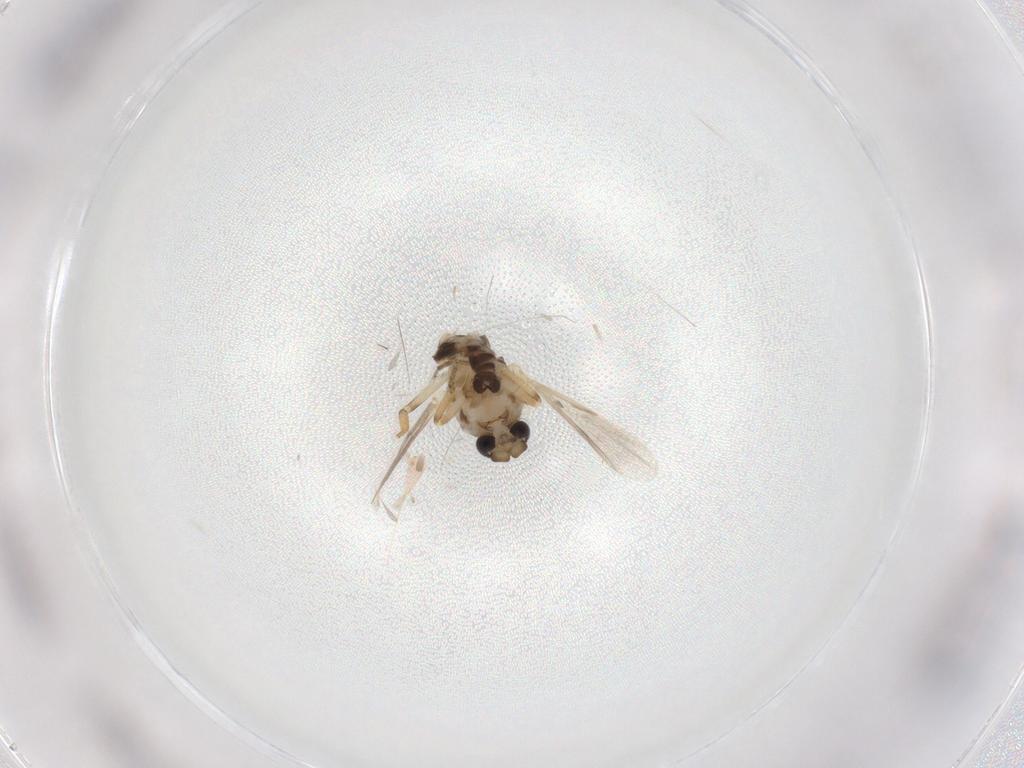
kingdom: Animalia
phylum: Arthropoda
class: Insecta
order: Diptera
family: Ceratopogonidae
